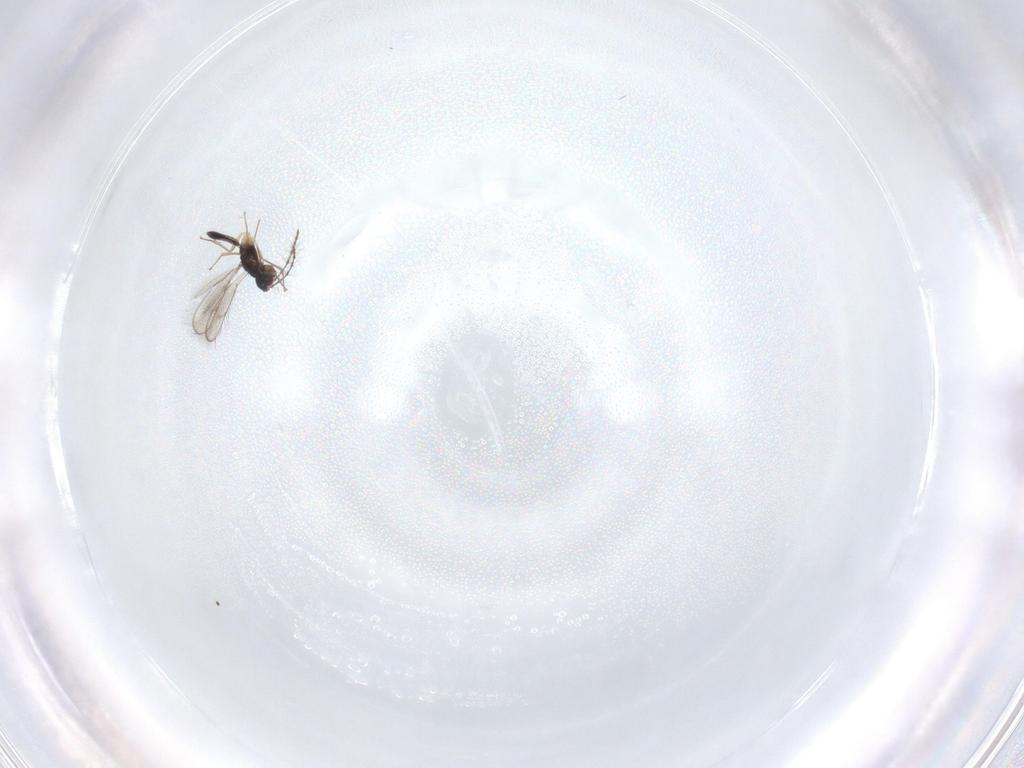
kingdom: Animalia
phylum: Arthropoda
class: Insecta
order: Hymenoptera
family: Pteromalidae
